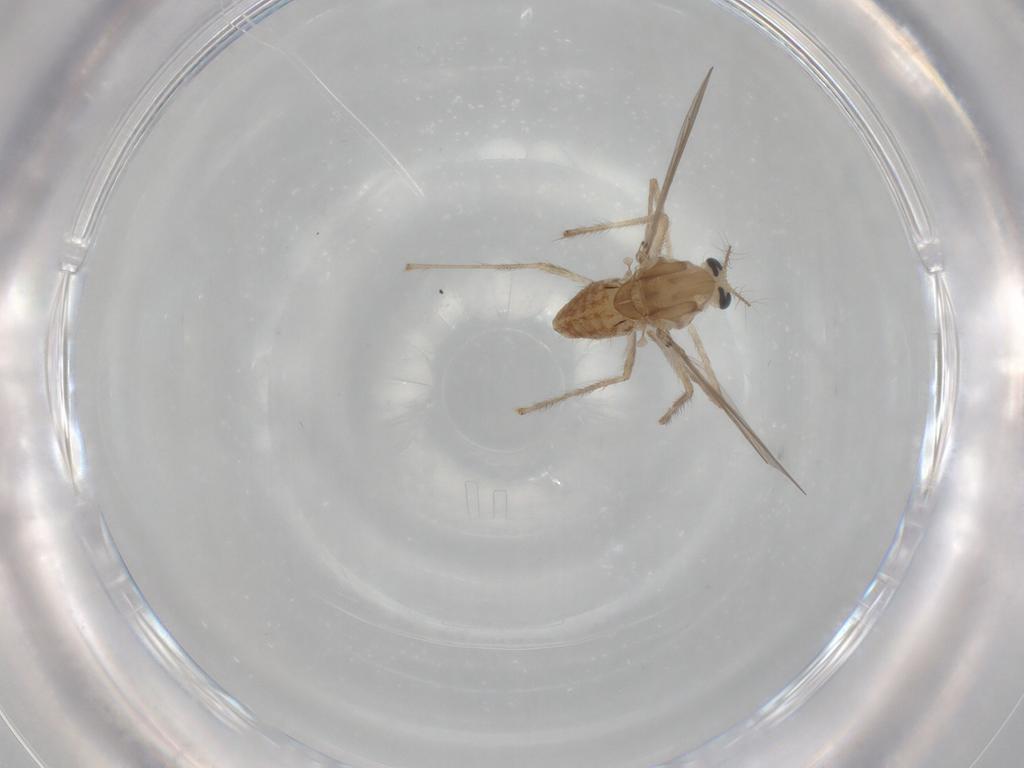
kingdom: Animalia
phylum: Arthropoda
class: Insecta
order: Diptera
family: Chironomidae
